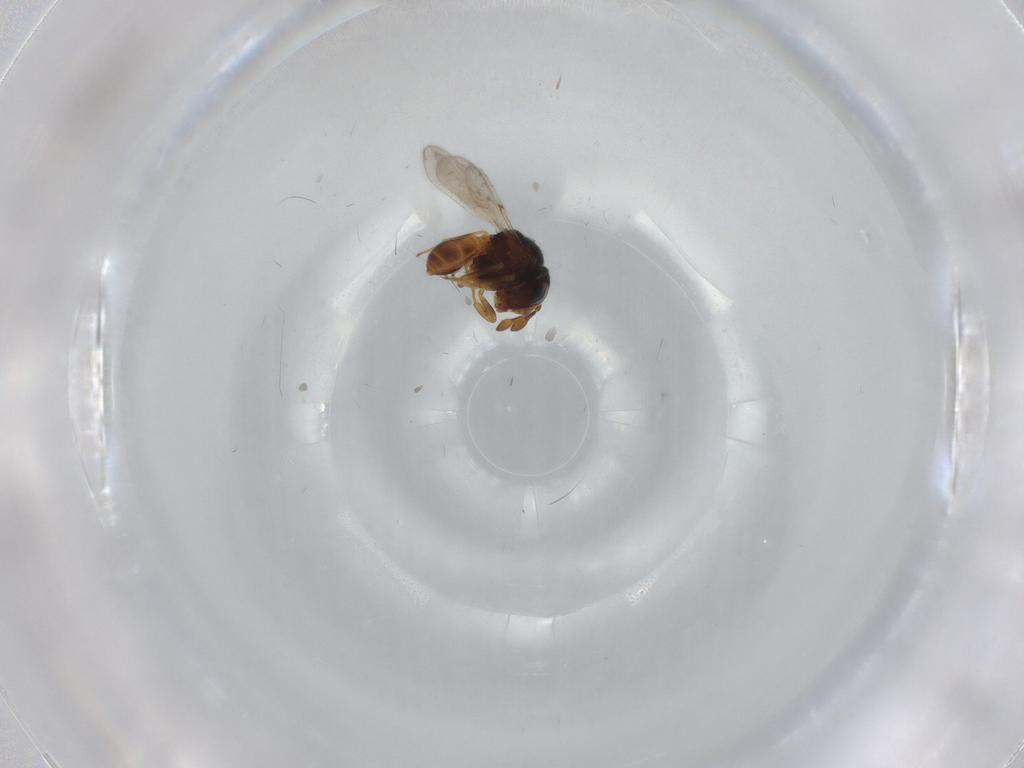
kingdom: Animalia
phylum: Arthropoda
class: Insecta
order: Hymenoptera
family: Scelionidae
